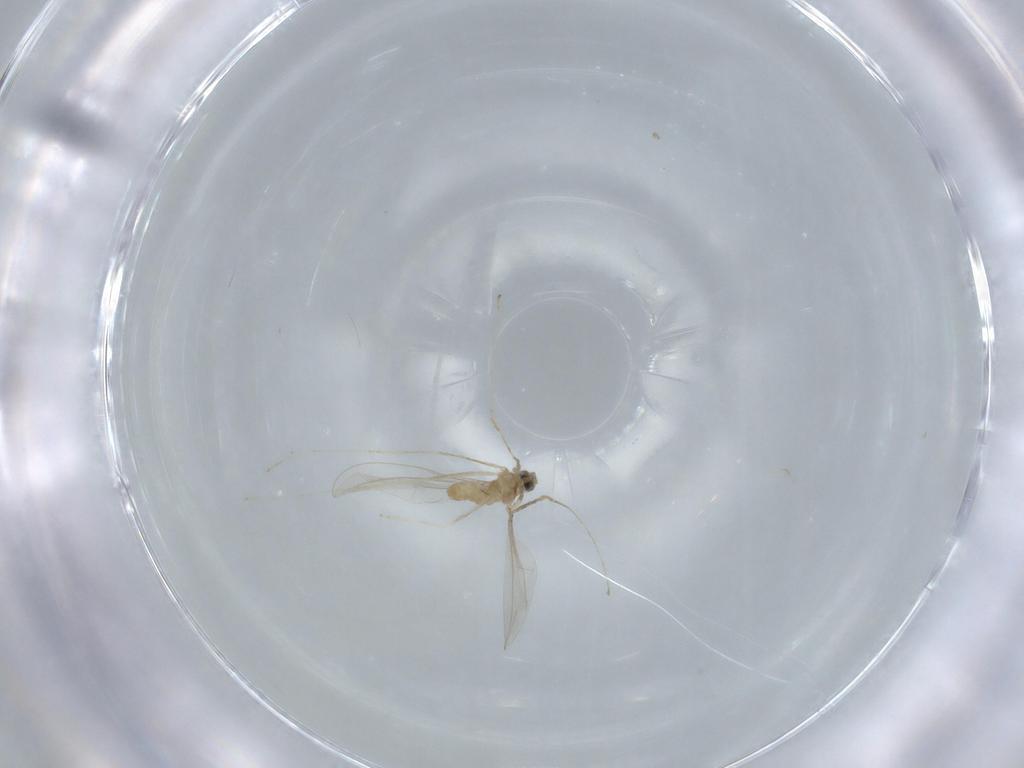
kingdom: Animalia
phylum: Arthropoda
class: Insecta
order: Diptera
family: Cecidomyiidae
